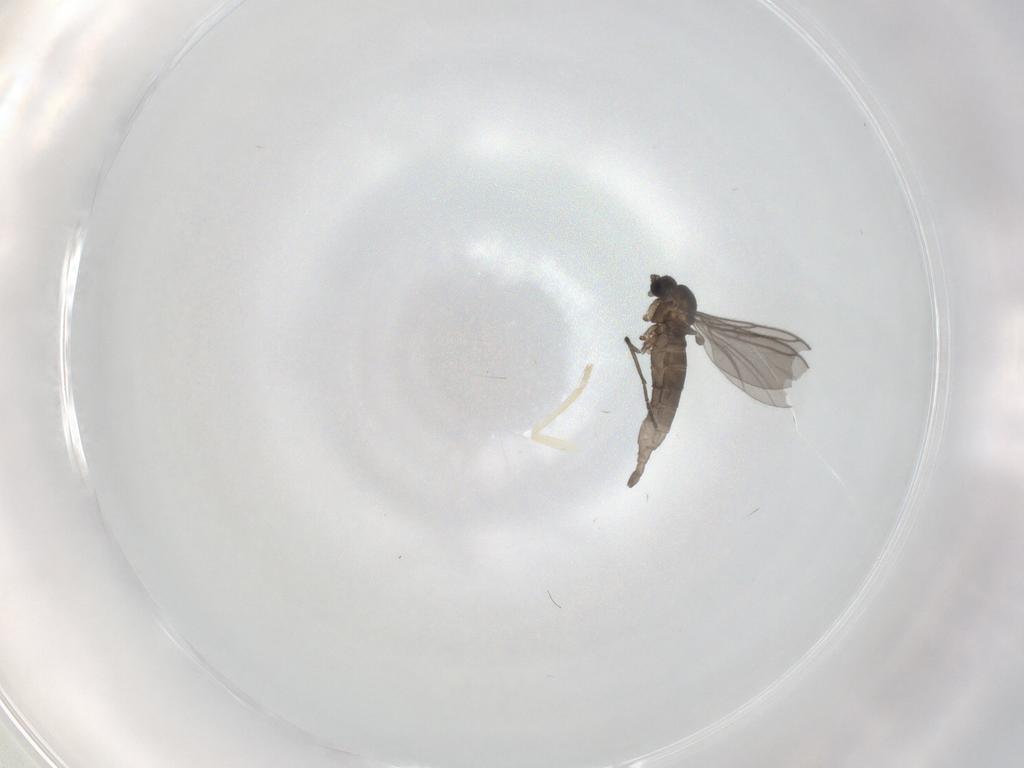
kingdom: Animalia
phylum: Arthropoda
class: Insecta
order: Diptera
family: Sciaridae
